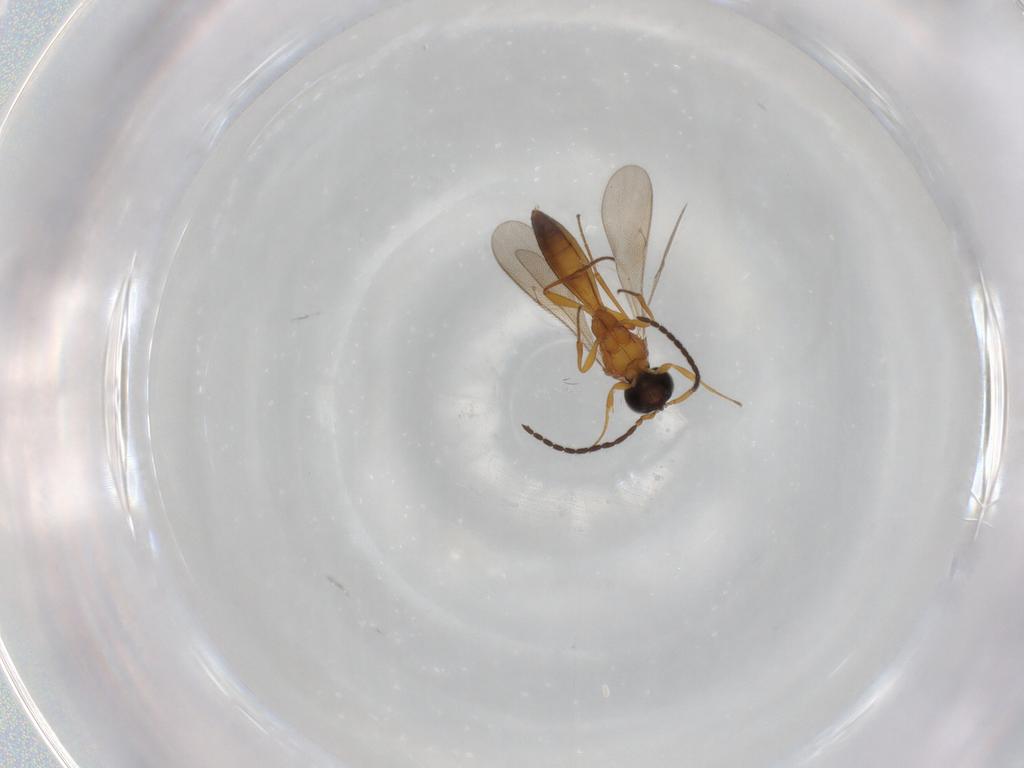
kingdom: Animalia
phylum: Arthropoda
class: Insecta
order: Hymenoptera
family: Scelionidae
